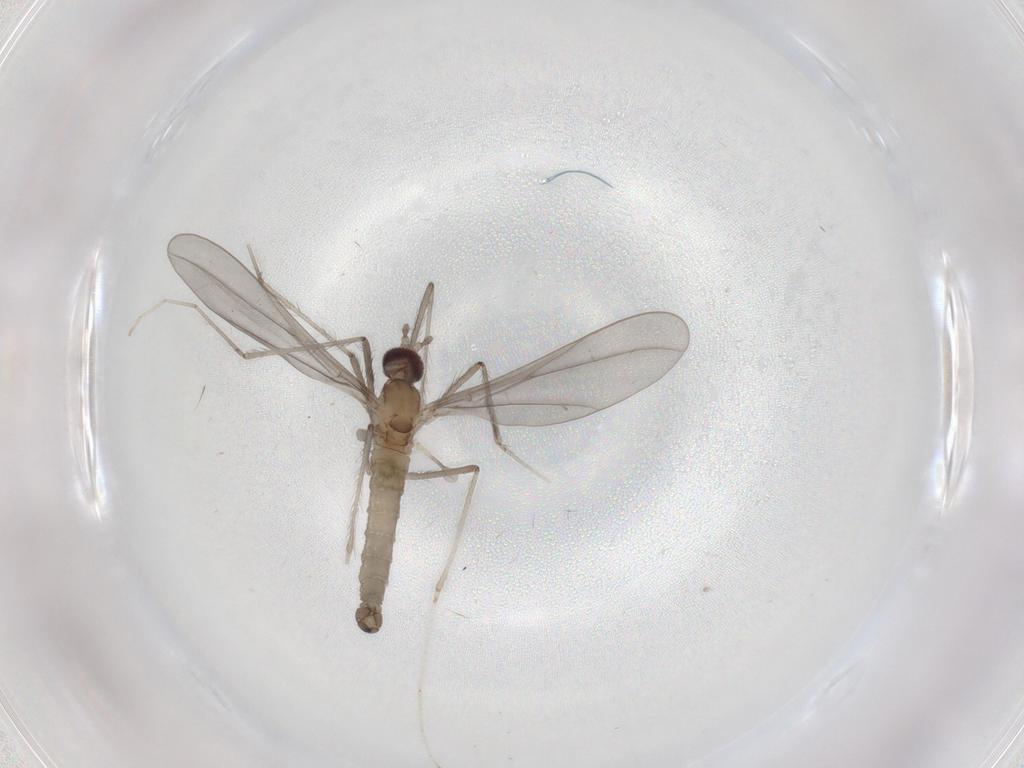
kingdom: Animalia
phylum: Arthropoda
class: Insecta
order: Diptera
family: Cecidomyiidae
